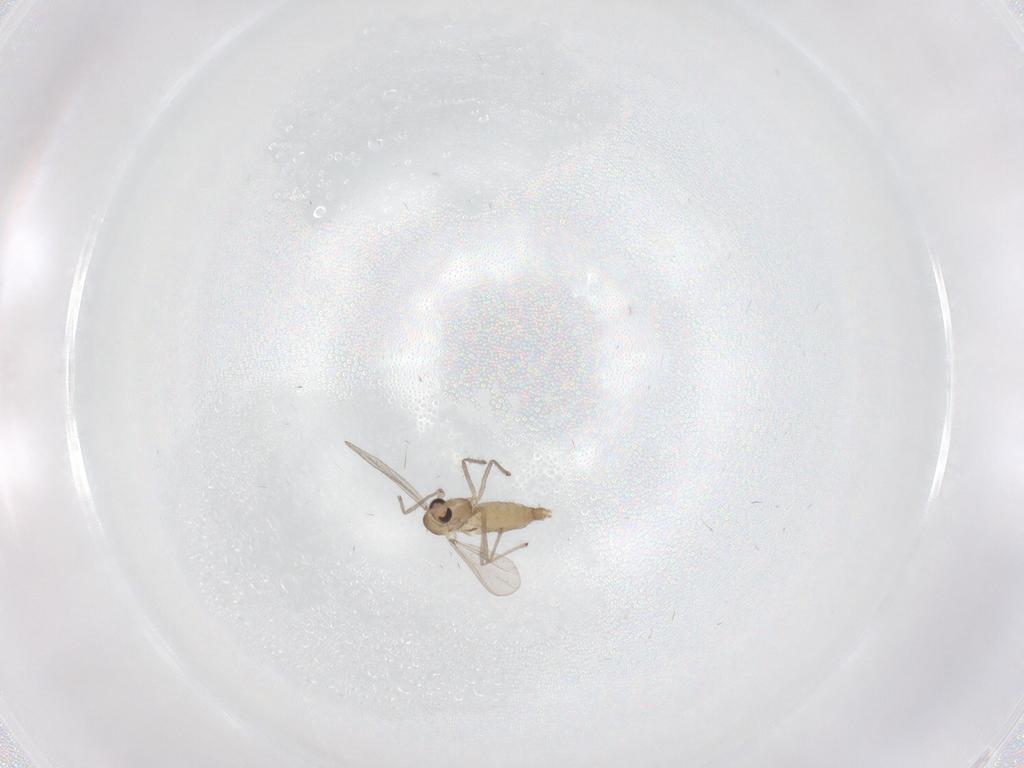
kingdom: Animalia
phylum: Arthropoda
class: Insecta
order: Diptera
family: Chironomidae
